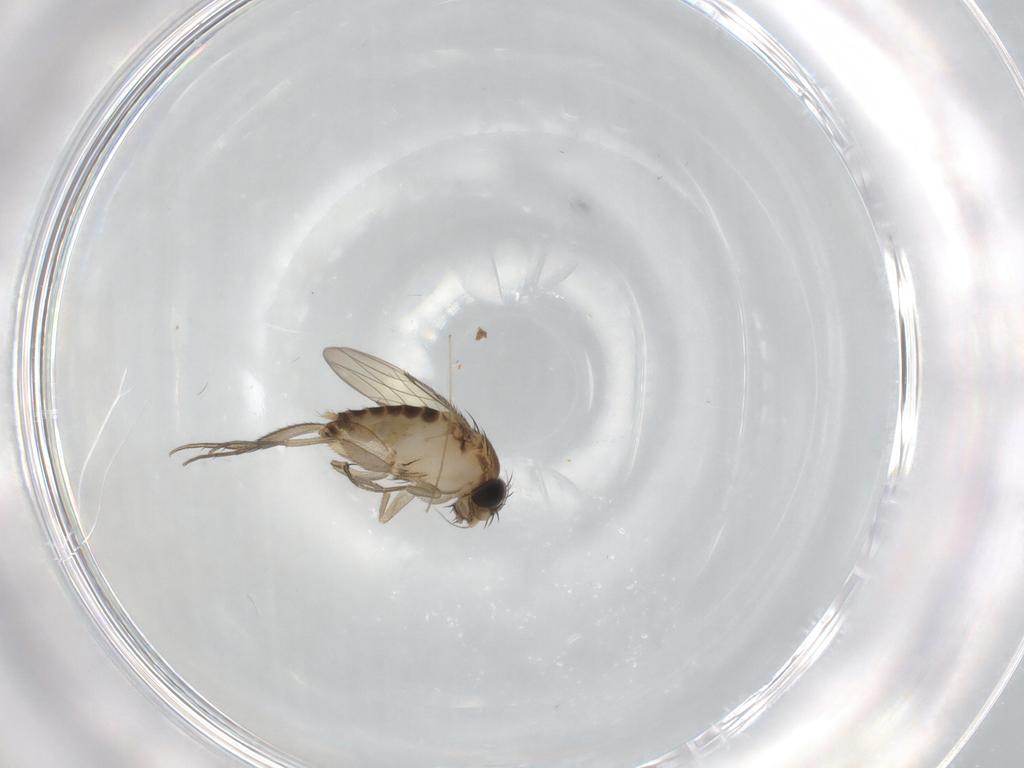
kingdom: Animalia
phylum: Arthropoda
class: Insecta
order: Diptera
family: Phoridae
